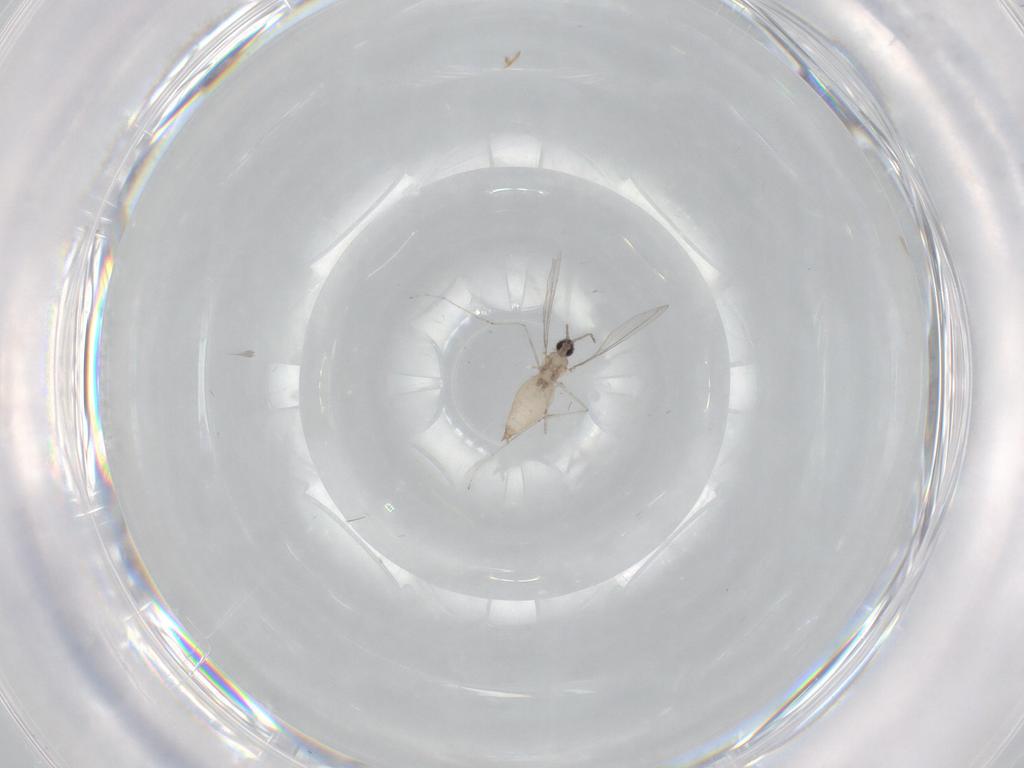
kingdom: Animalia
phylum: Arthropoda
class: Insecta
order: Diptera
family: Cecidomyiidae
